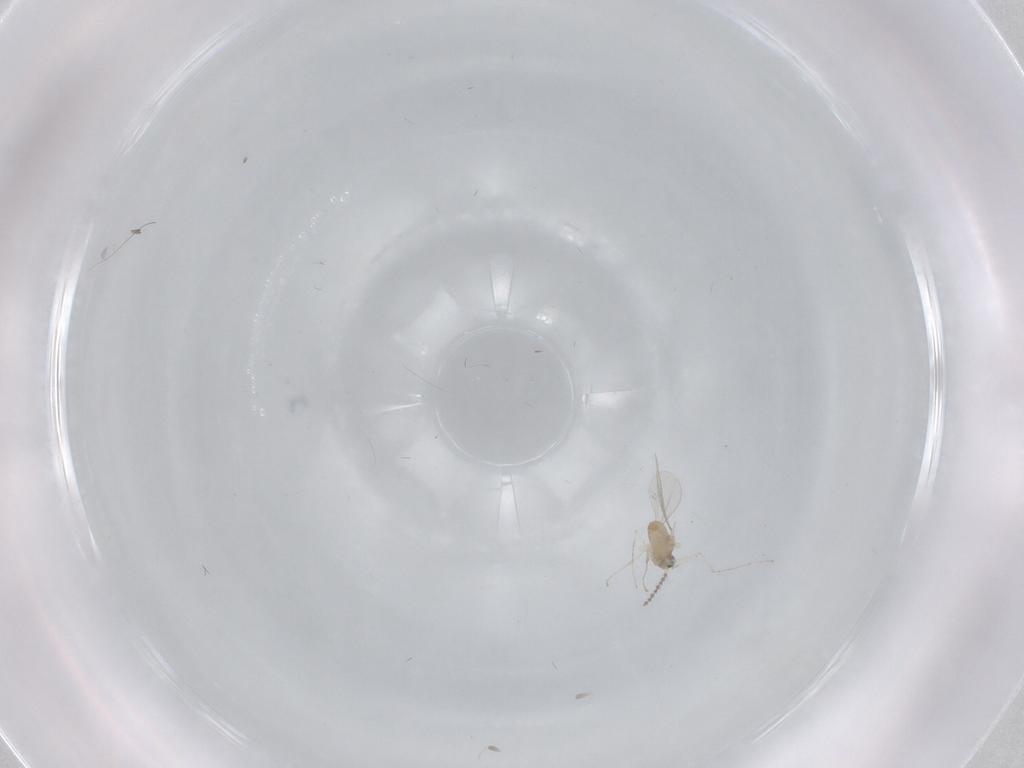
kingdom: Animalia
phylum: Arthropoda
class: Insecta
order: Diptera
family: Cecidomyiidae
